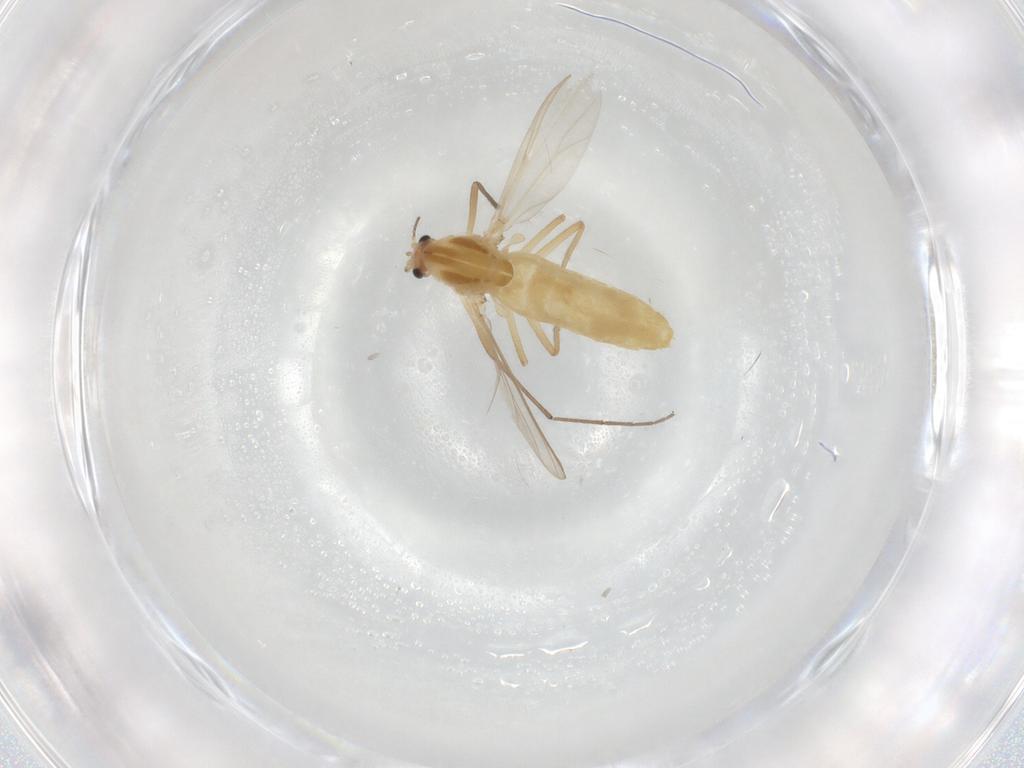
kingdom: Animalia
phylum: Arthropoda
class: Insecta
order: Diptera
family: Chironomidae
